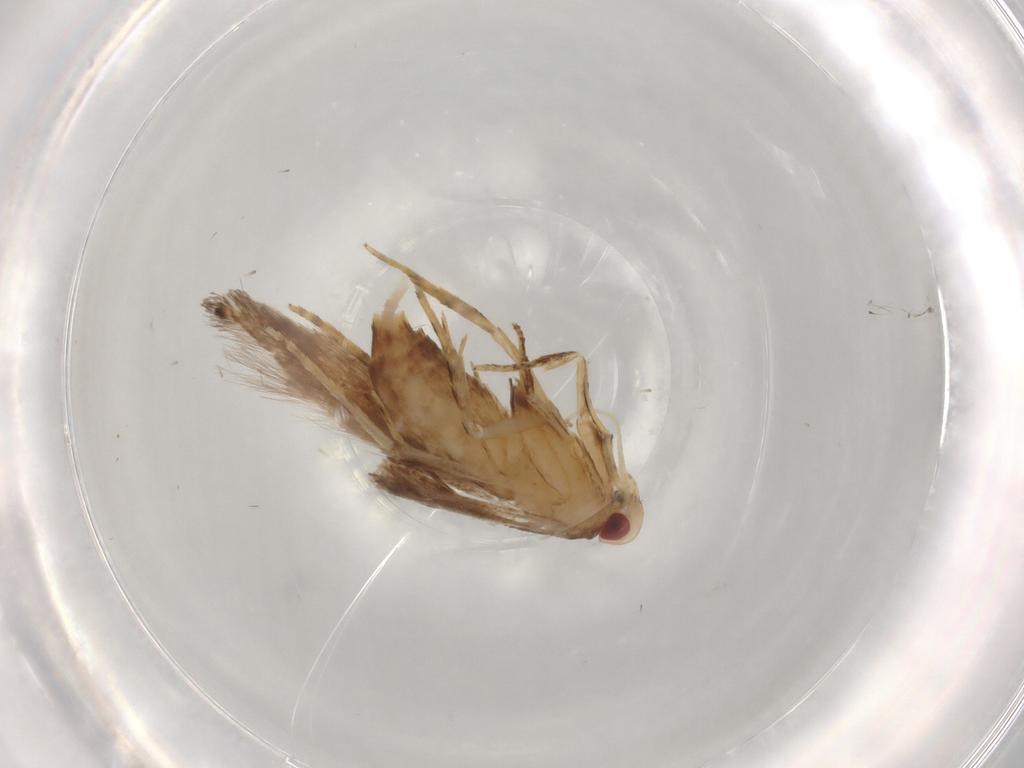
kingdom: Animalia
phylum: Arthropoda
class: Insecta
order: Lepidoptera
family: Cosmopterigidae
